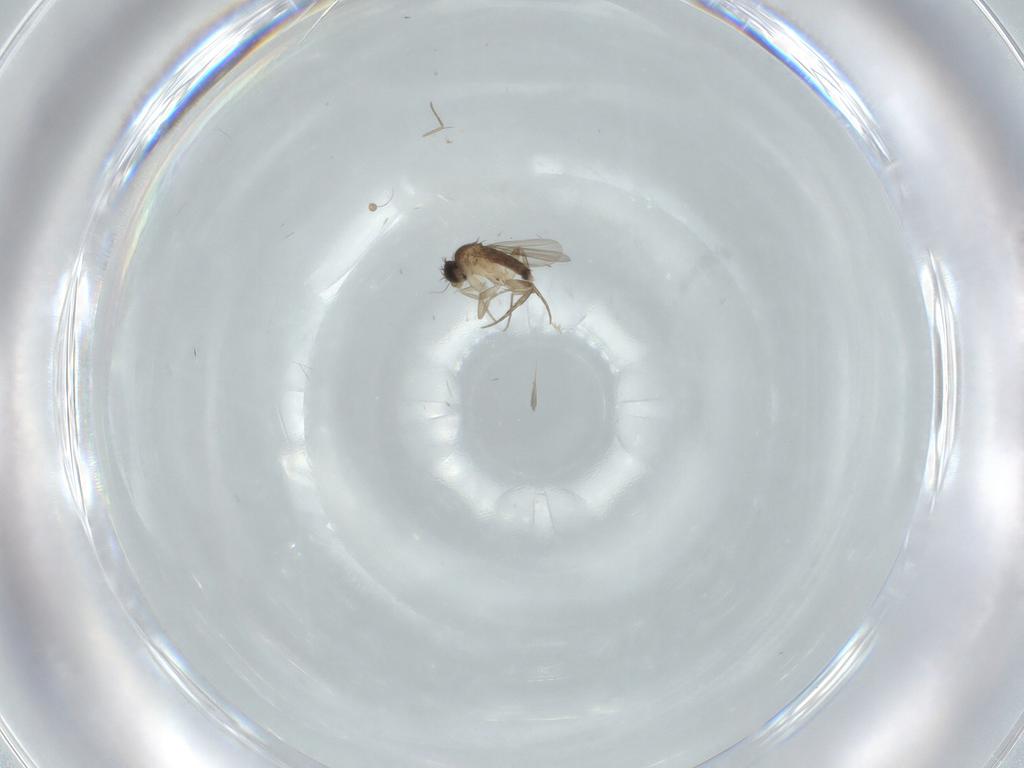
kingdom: Animalia
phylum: Arthropoda
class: Insecta
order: Diptera
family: Phoridae
